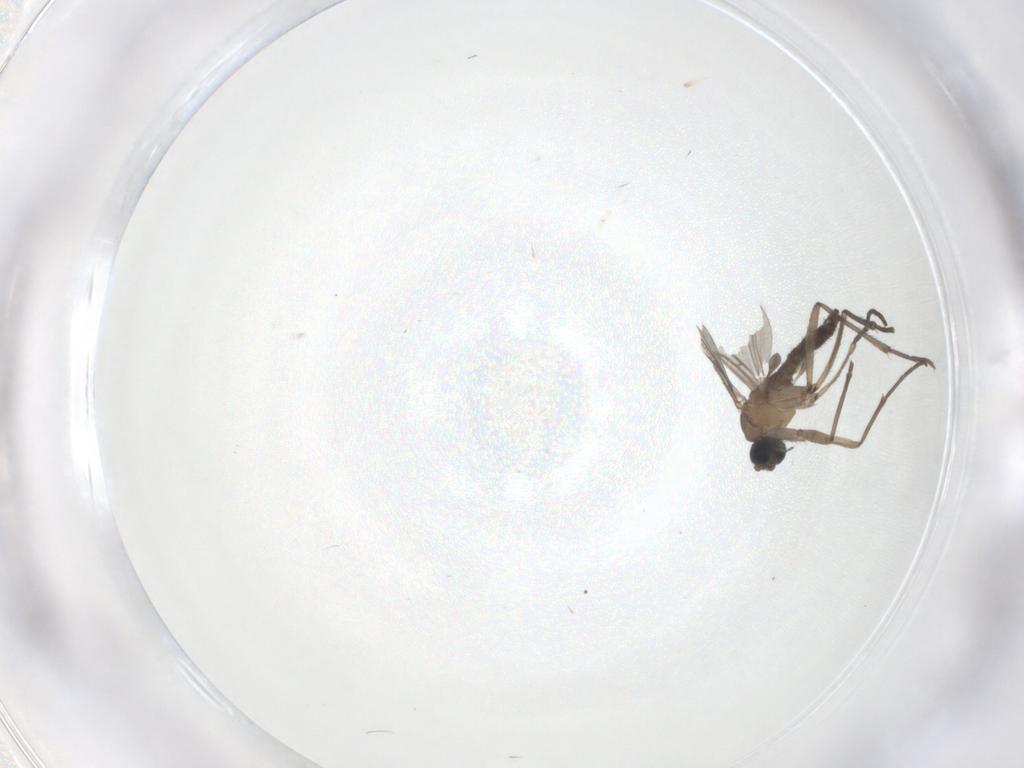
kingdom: Animalia
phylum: Arthropoda
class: Insecta
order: Diptera
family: Sciaridae
